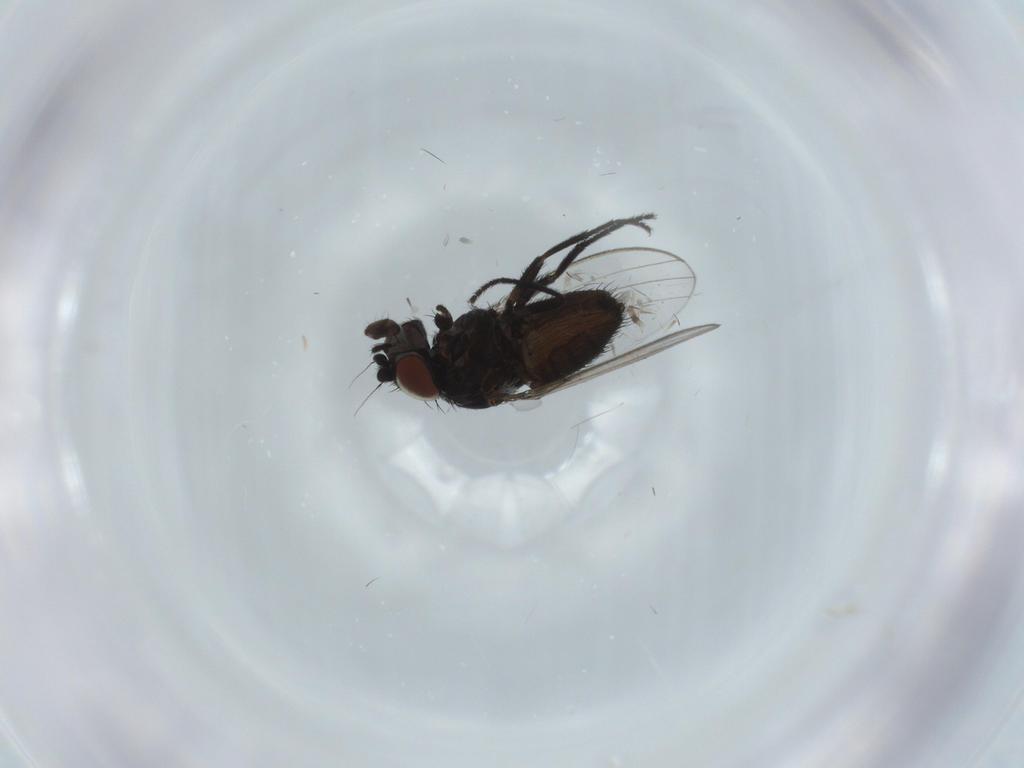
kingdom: Animalia
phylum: Arthropoda
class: Insecta
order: Diptera
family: Milichiidae
